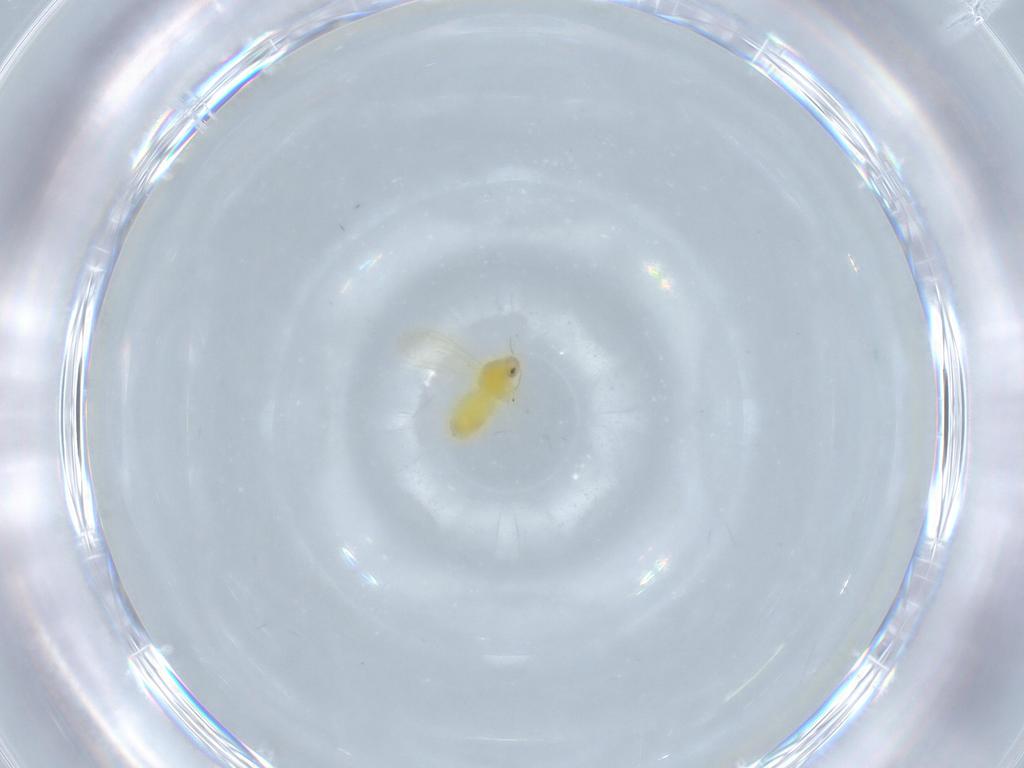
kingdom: Animalia
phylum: Arthropoda
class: Insecta
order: Hemiptera
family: Aleyrodidae
